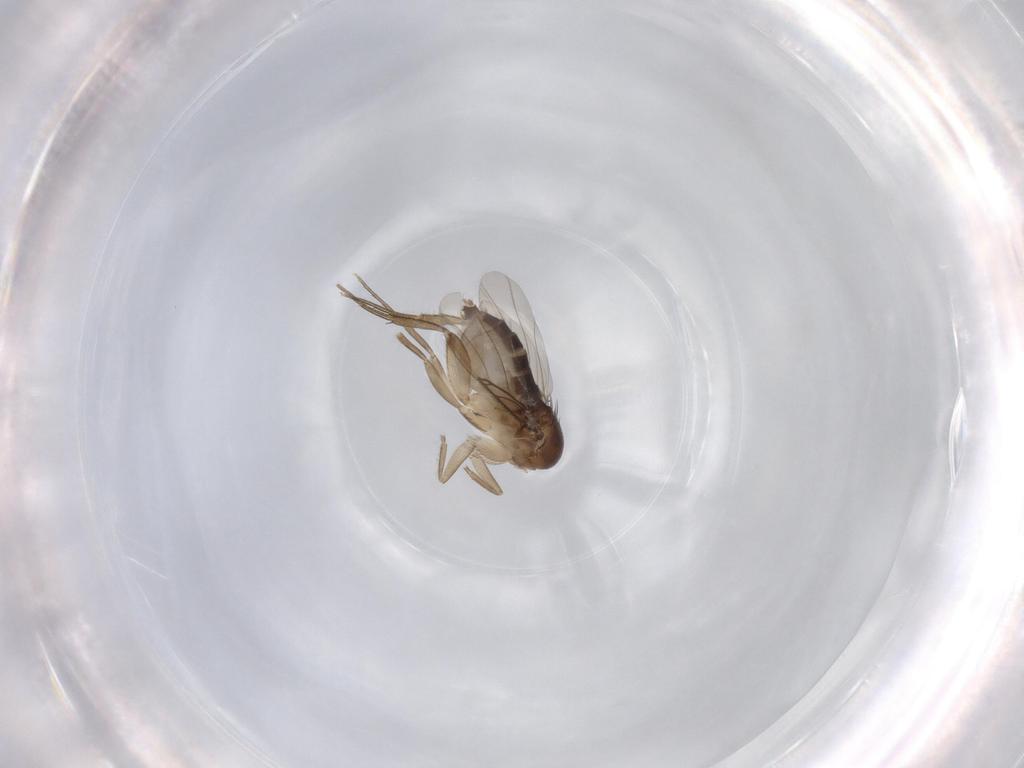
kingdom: Animalia
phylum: Arthropoda
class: Insecta
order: Diptera
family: Phoridae
